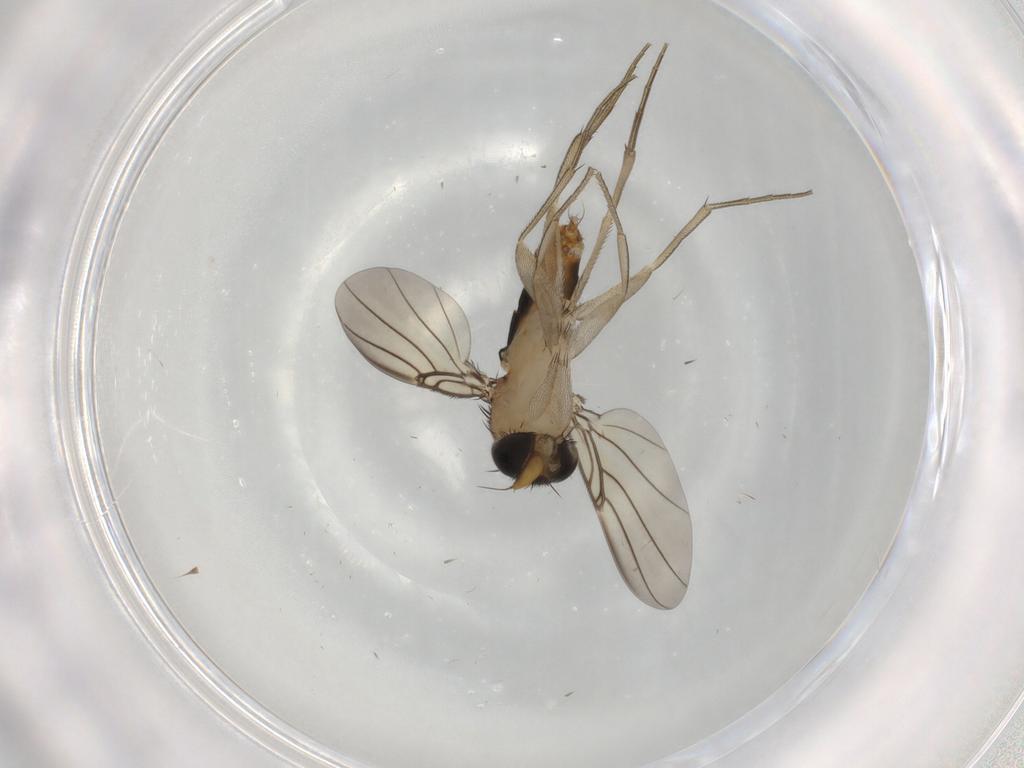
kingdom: Animalia
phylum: Arthropoda
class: Insecta
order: Diptera
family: Phoridae
